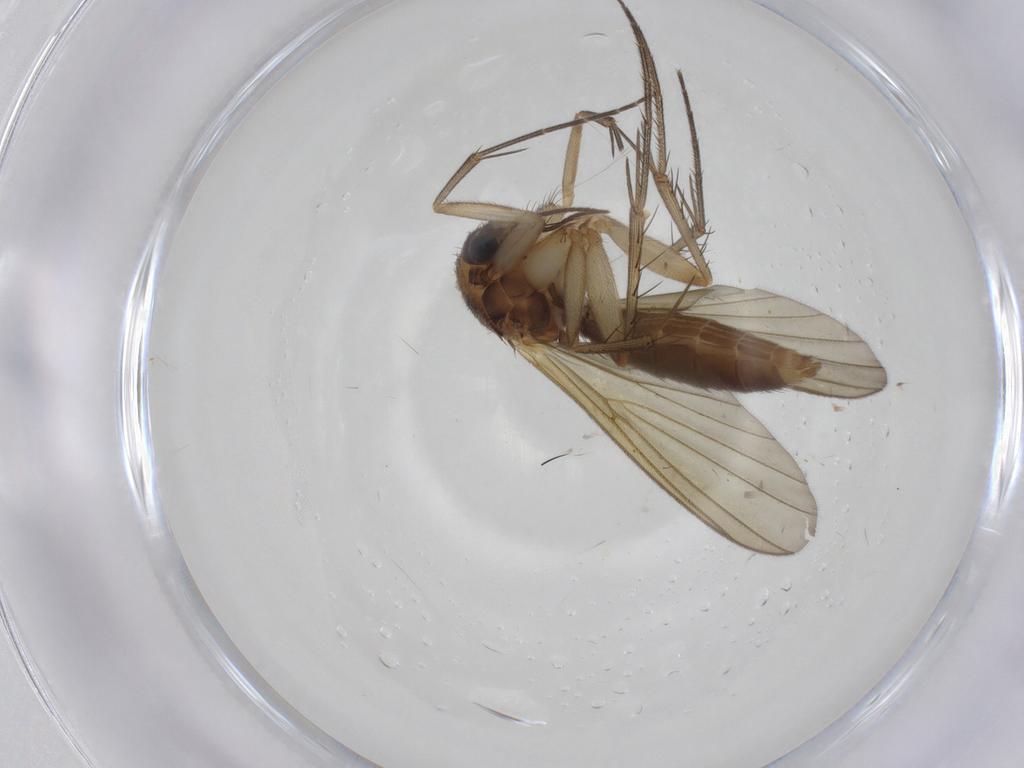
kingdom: Animalia
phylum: Arthropoda
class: Insecta
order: Diptera
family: Mycetophilidae
